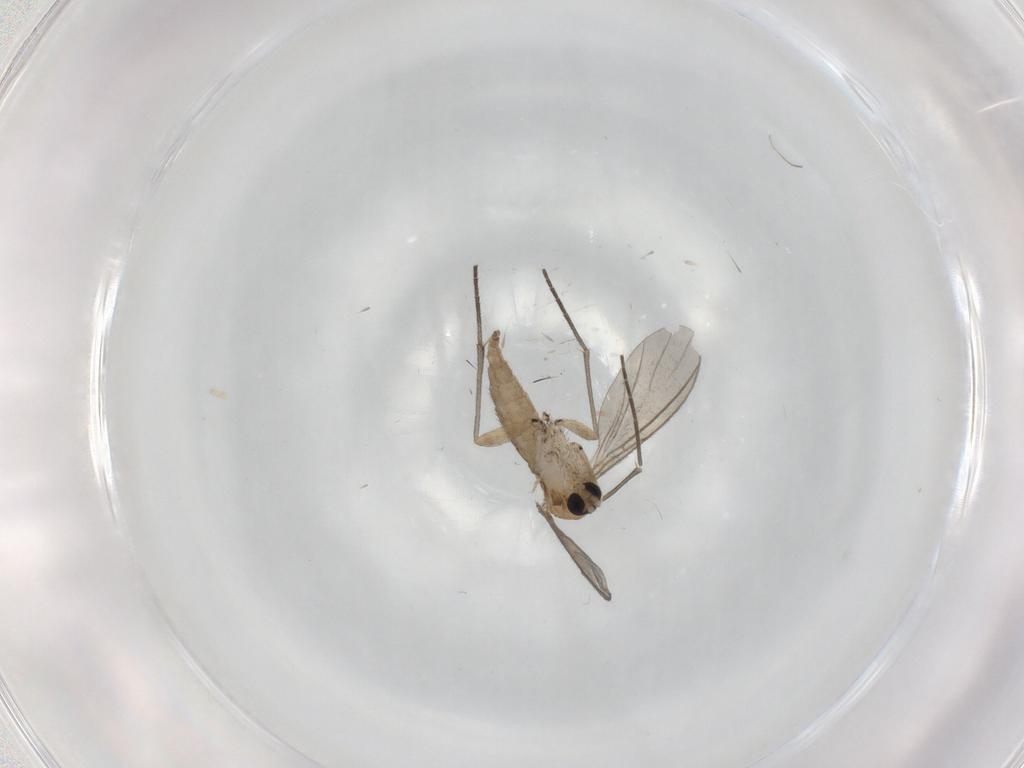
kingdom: Animalia
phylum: Arthropoda
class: Insecta
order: Diptera
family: Sciaridae
